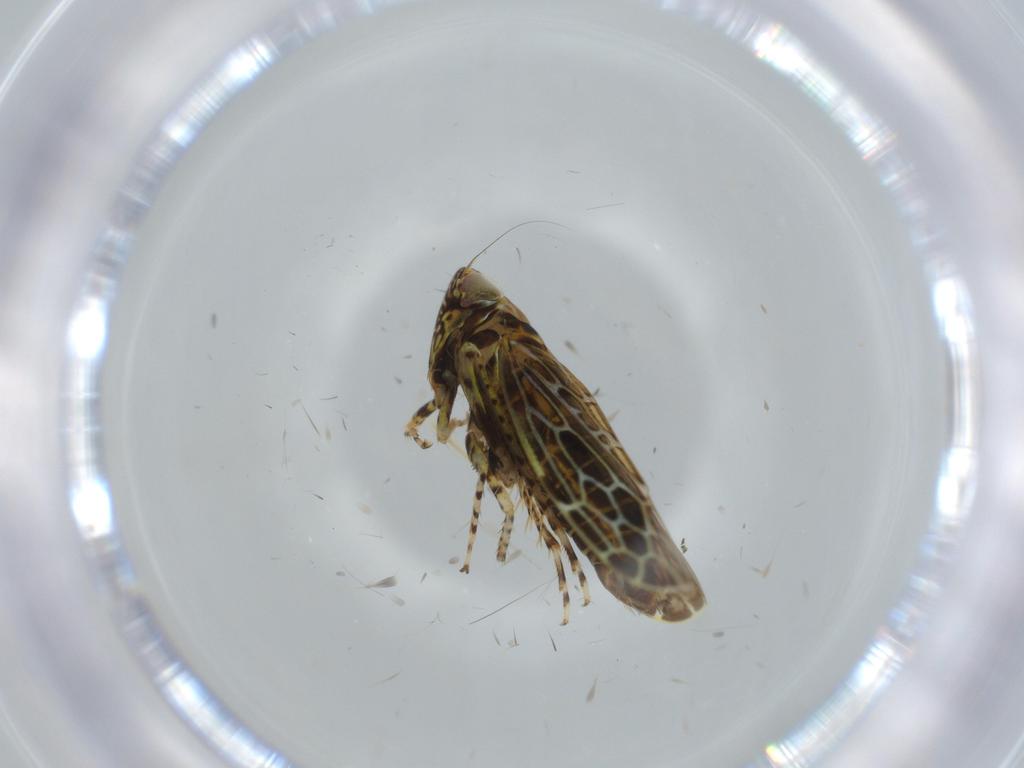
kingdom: Animalia
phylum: Arthropoda
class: Insecta
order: Hemiptera
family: Cicadellidae
